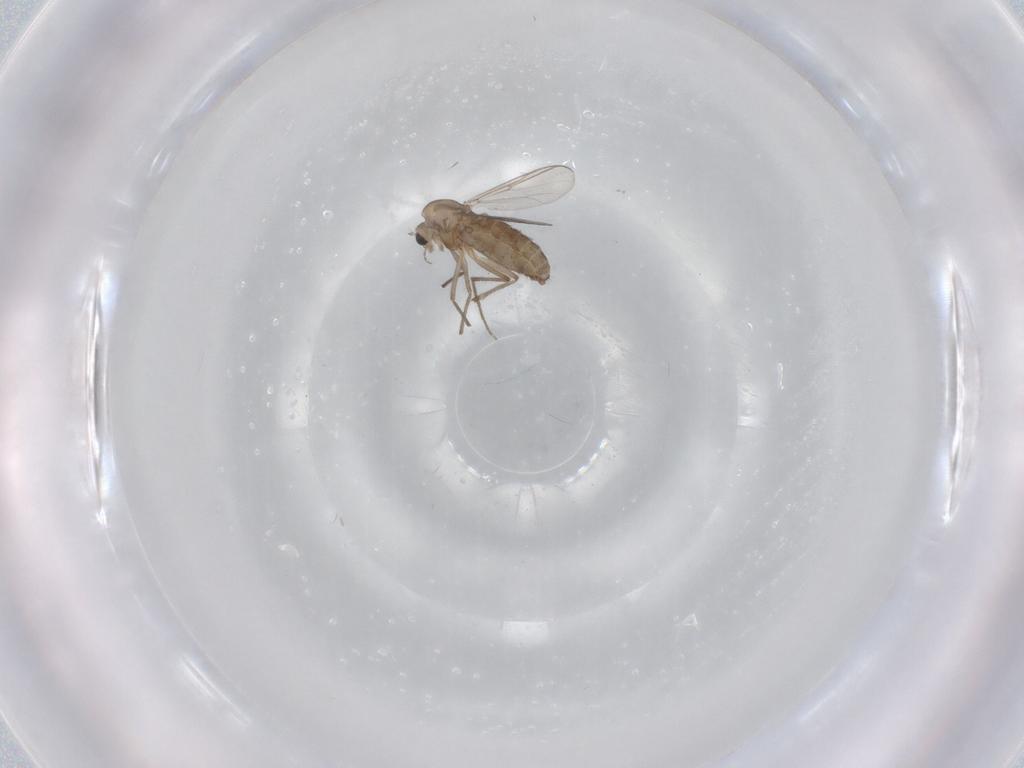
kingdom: Animalia
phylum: Arthropoda
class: Insecta
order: Diptera
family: Chironomidae
